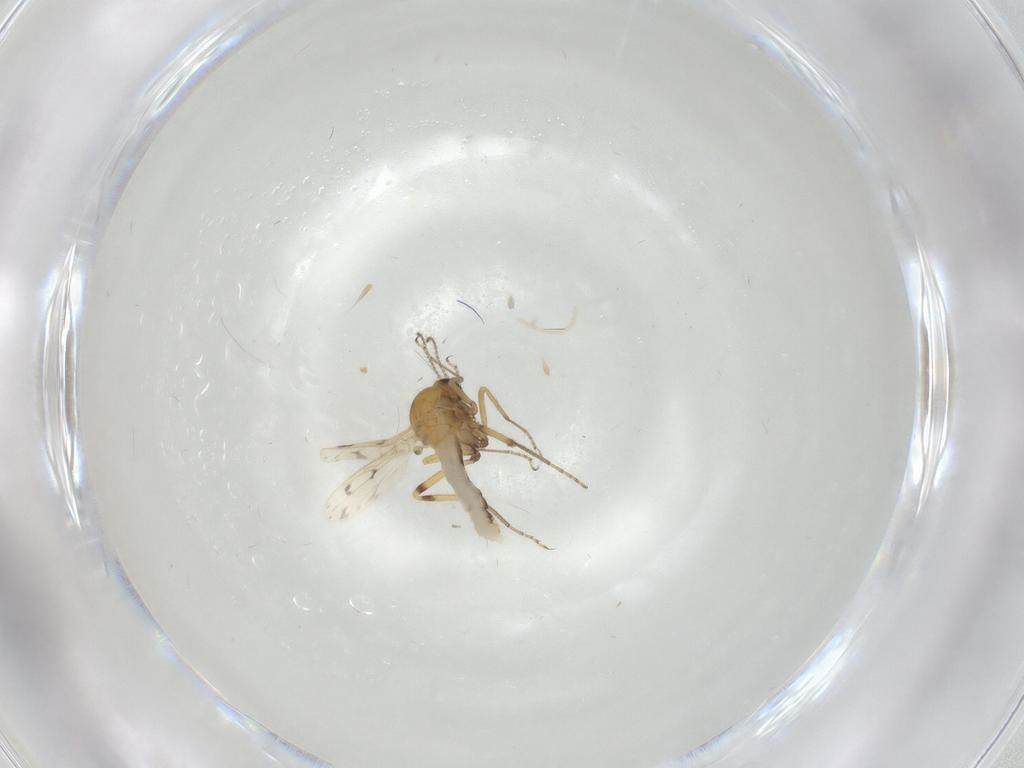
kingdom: Animalia
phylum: Arthropoda
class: Insecta
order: Diptera
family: Ceratopogonidae
